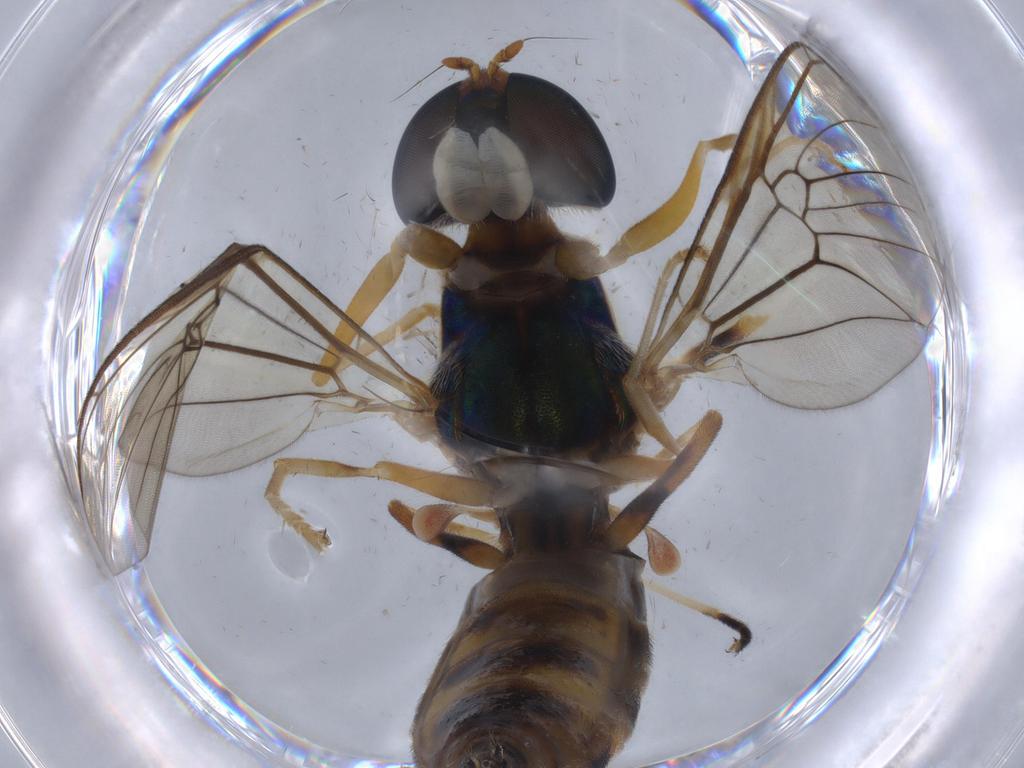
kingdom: Animalia
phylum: Arthropoda
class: Insecta
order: Diptera
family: Cecidomyiidae
